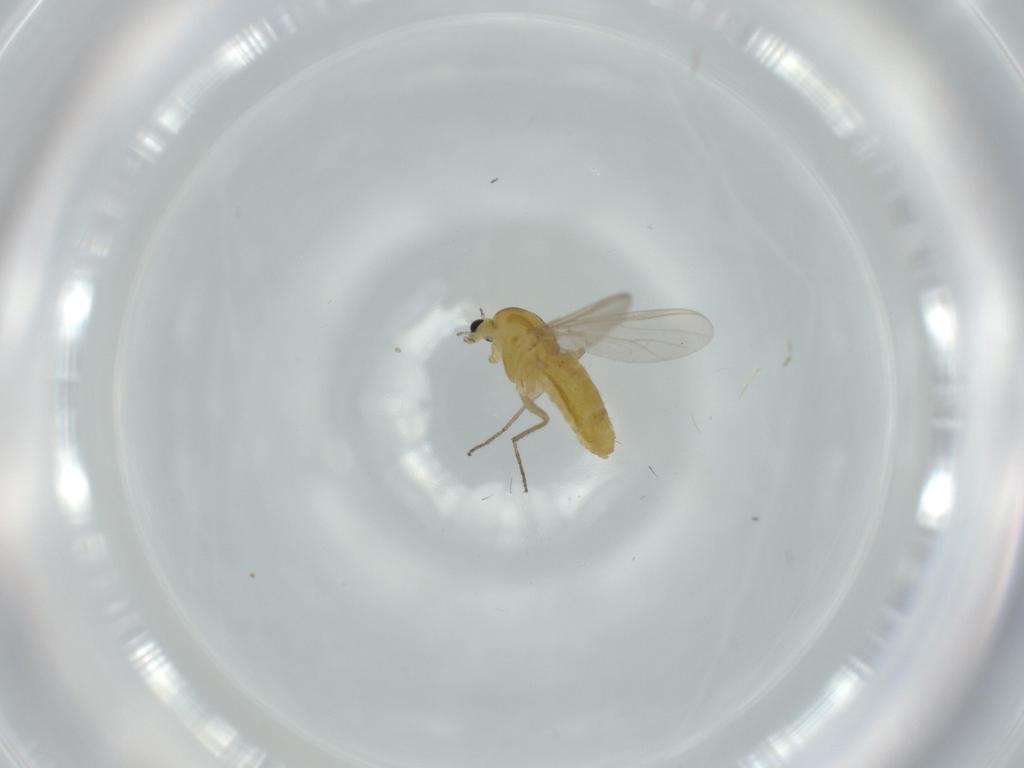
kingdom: Animalia
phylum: Arthropoda
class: Insecta
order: Diptera
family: Chironomidae
